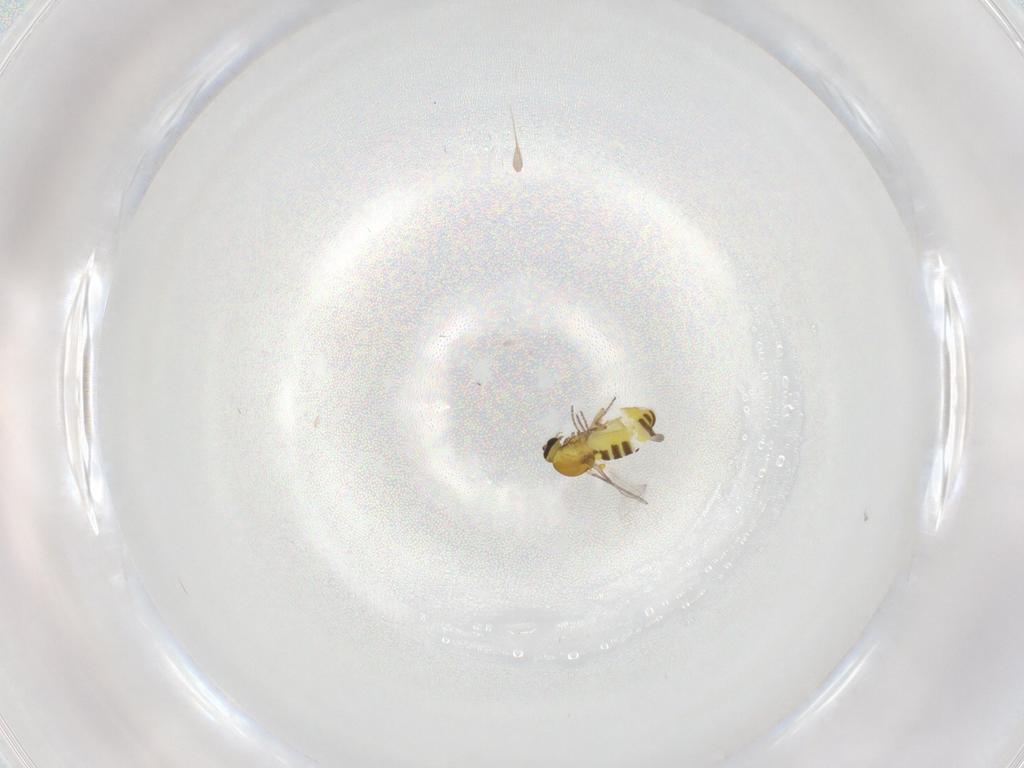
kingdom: Animalia
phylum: Arthropoda
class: Insecta
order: Diptera
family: Ceratopogonidae
